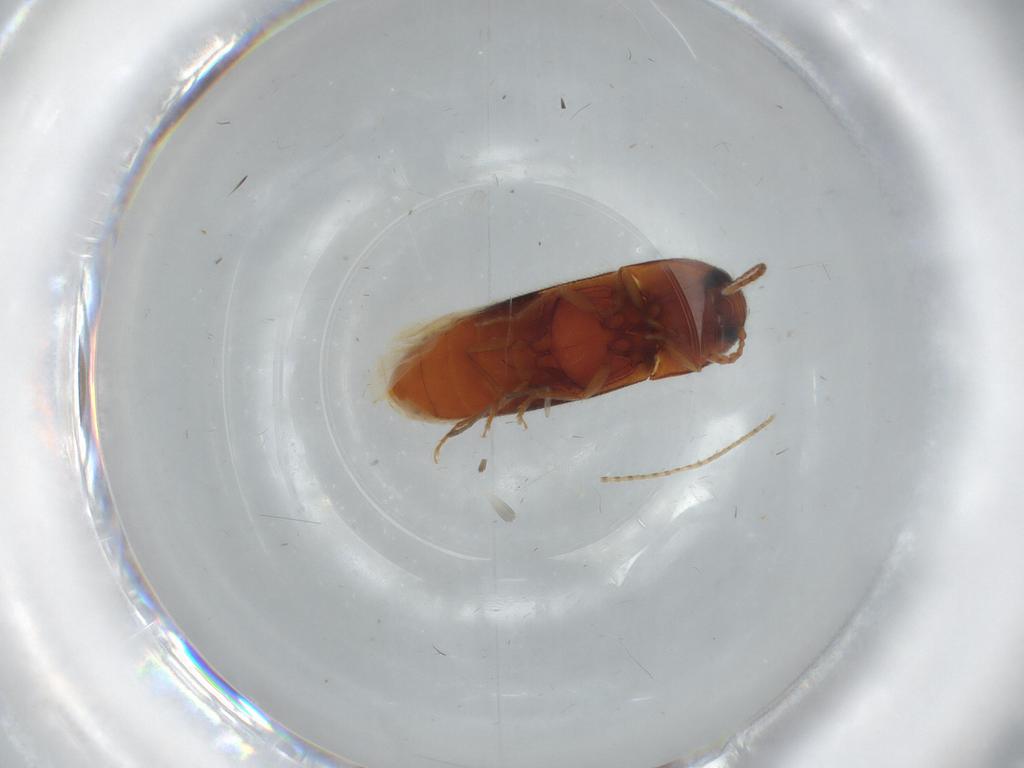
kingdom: Animalia
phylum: Arthropoda
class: Insecta
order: Coleoptera
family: Elateridae
